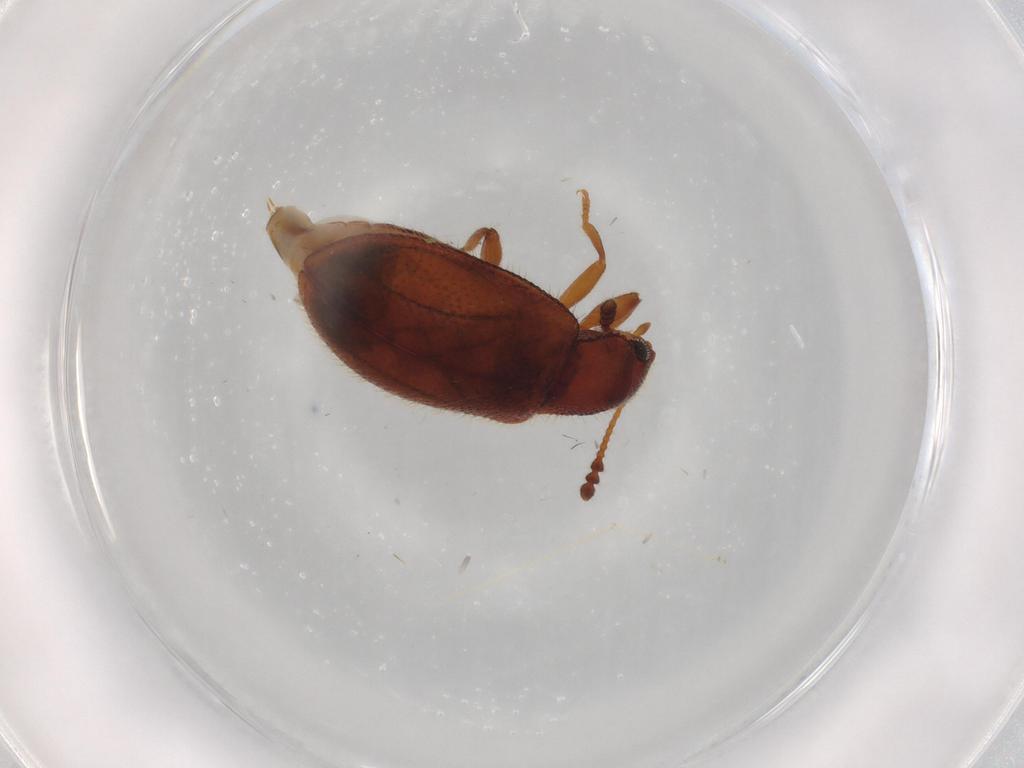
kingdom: Animalia
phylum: Arthropoda
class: Insecta
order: Coleoptera
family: Tenebrionidae
